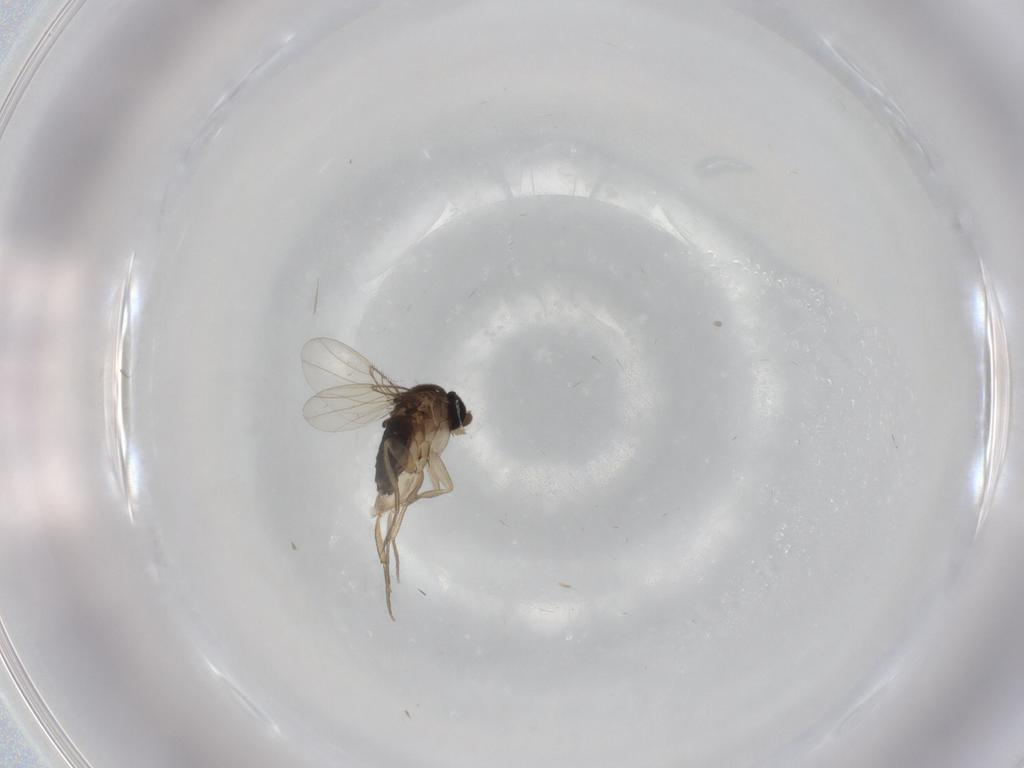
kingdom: Animalia
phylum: Arthropoda
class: Insecta
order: Diptera
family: Phoridae
